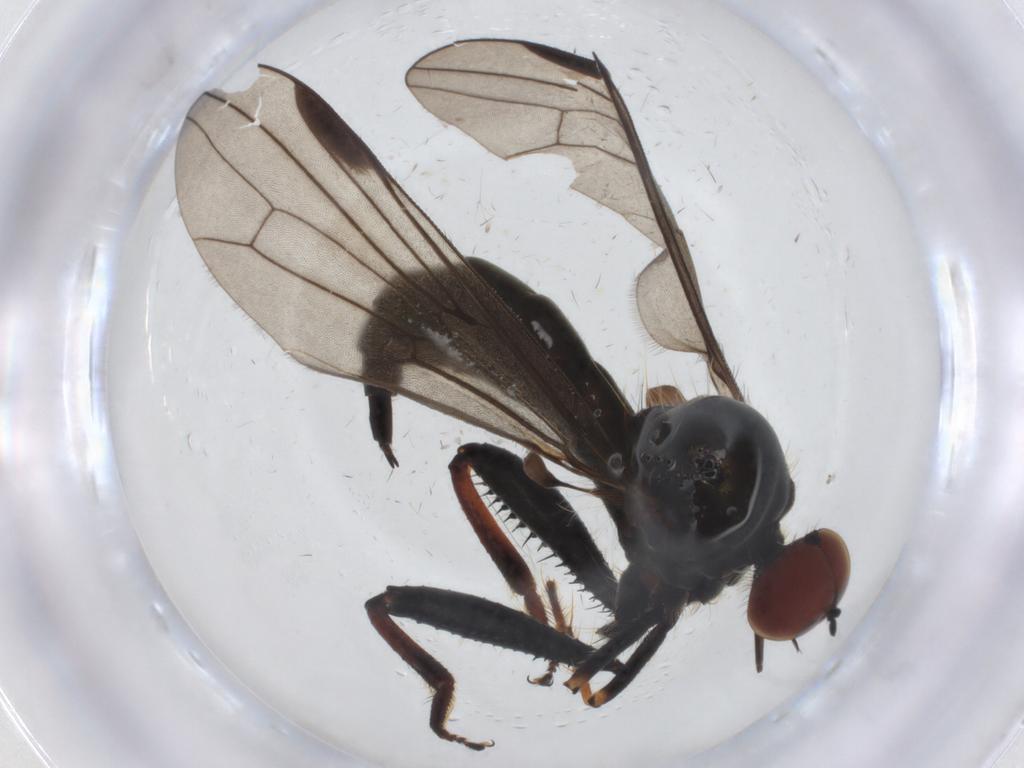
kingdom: Animalia
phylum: Arthropoda
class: Insecta
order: Diptera
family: Hybotidae
